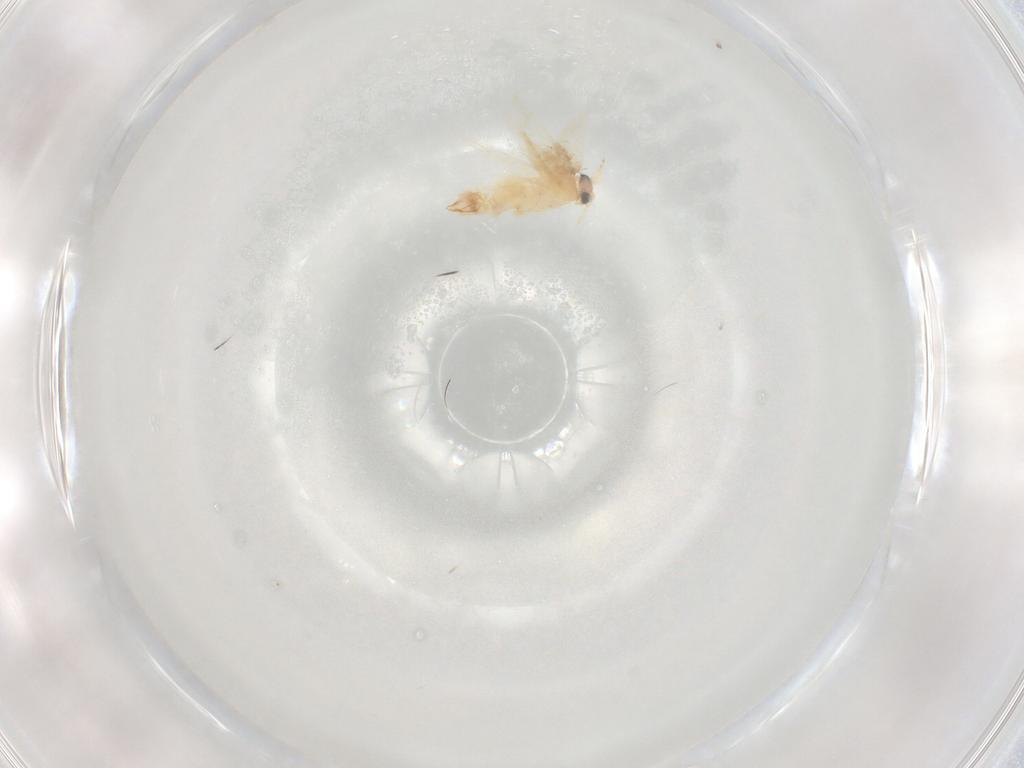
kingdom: Animalia
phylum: Arthropoda
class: Insecta
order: Lepidoptera
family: Nepticulidae
